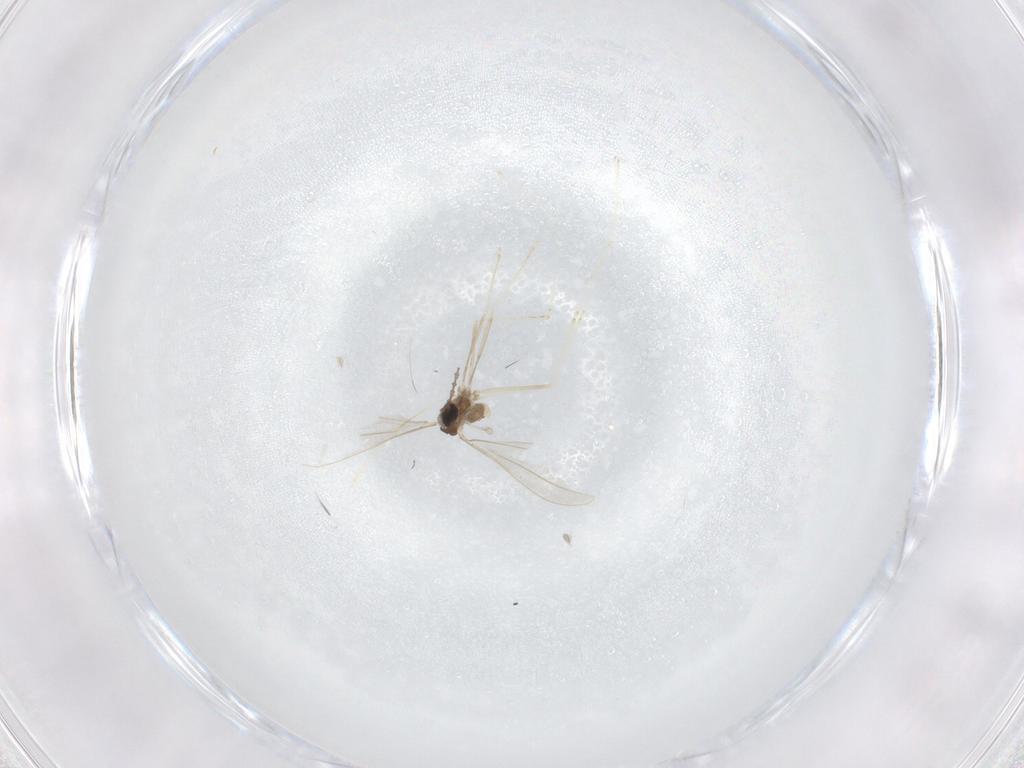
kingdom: Animalia
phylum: Arthropoda
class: Insecta
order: Diptera
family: Cecidomyiidae
